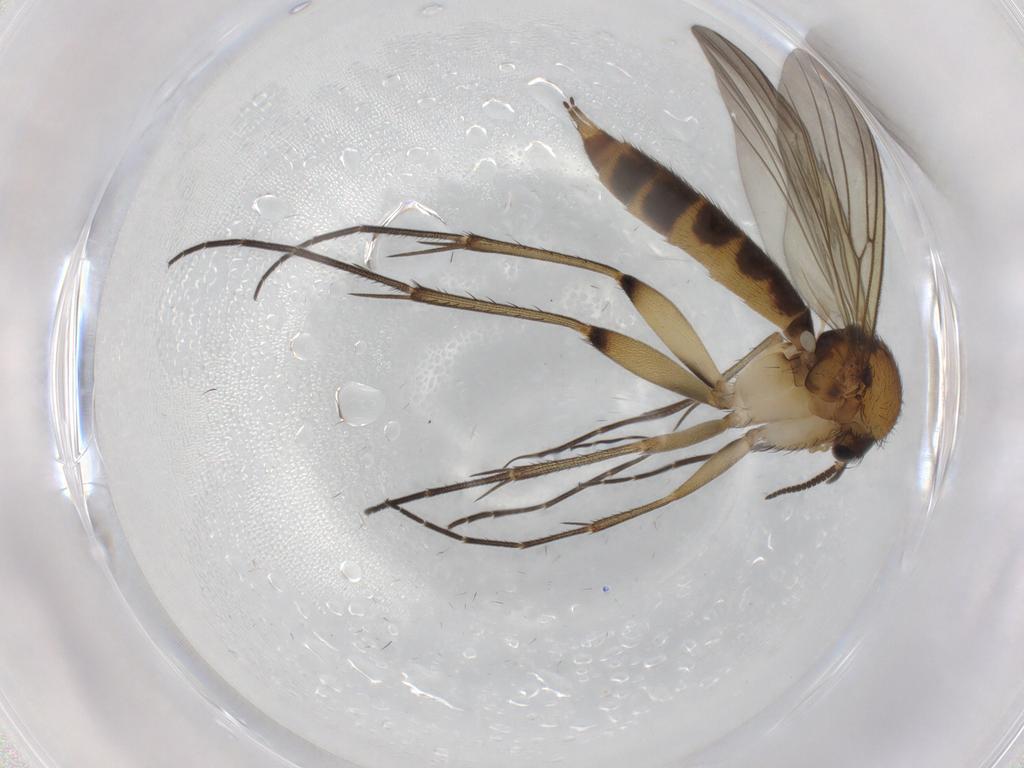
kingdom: Animalia
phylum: Arthropoda
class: Insecta
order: Diptera
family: Mycetophilidae
